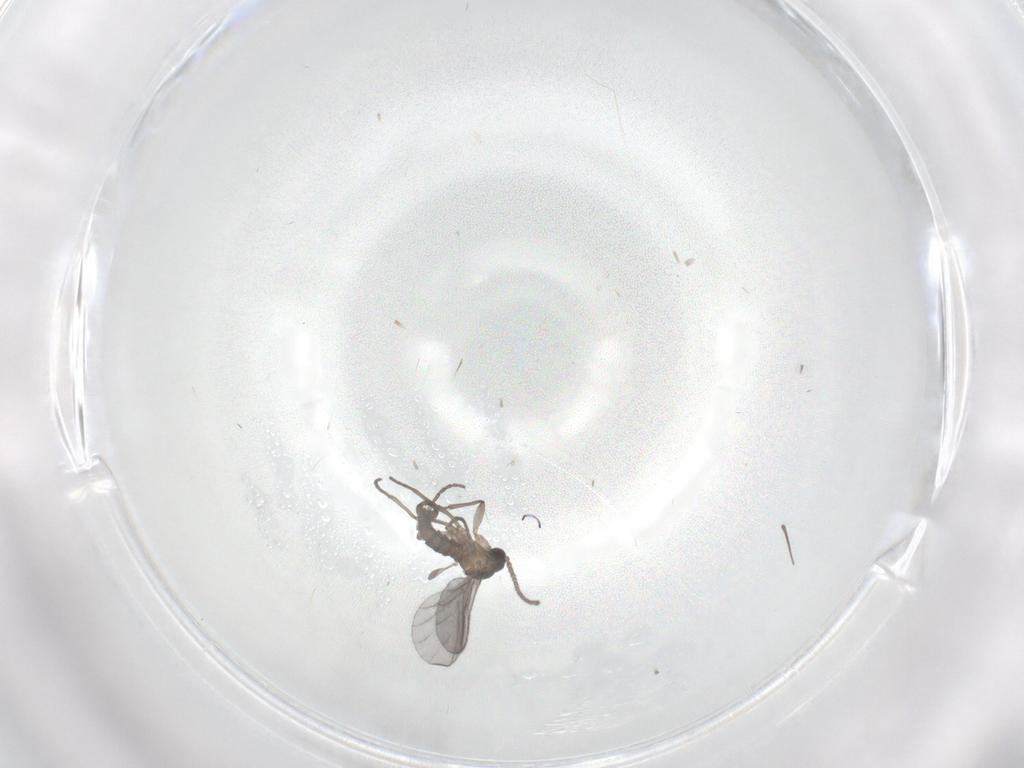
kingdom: Animalia
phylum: Arthropoda
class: Insecta
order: Diptera
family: Sciaridae
